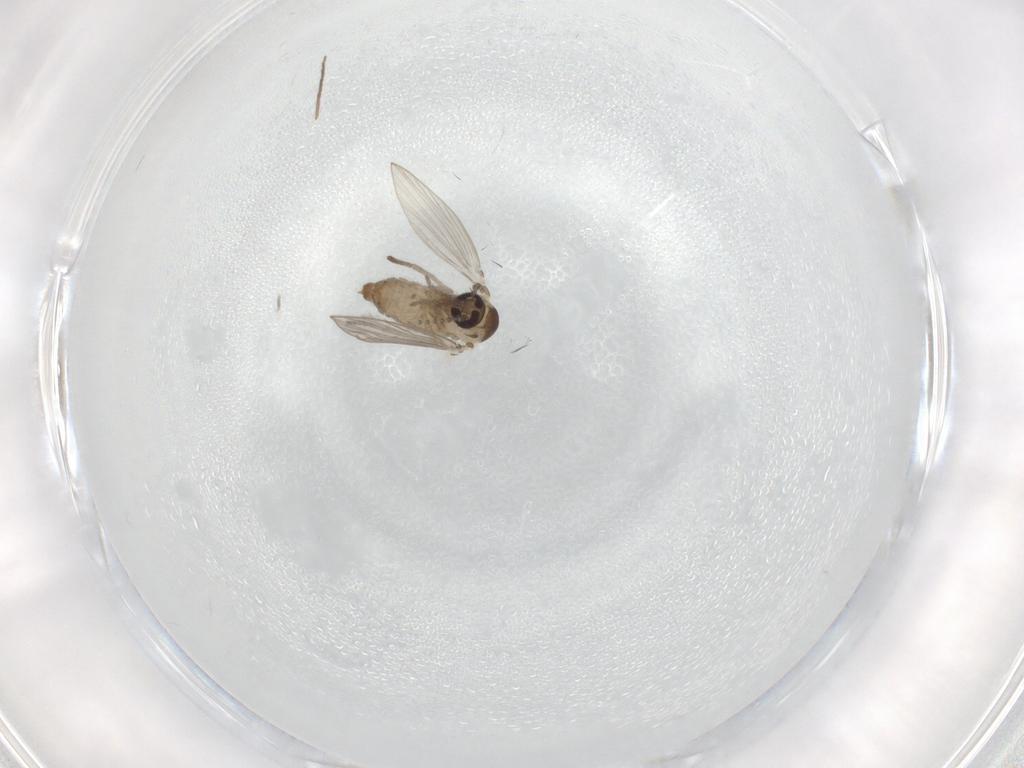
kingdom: Animalia
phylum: Arthropoda
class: Insecta
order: Diptera
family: Psychodidae
